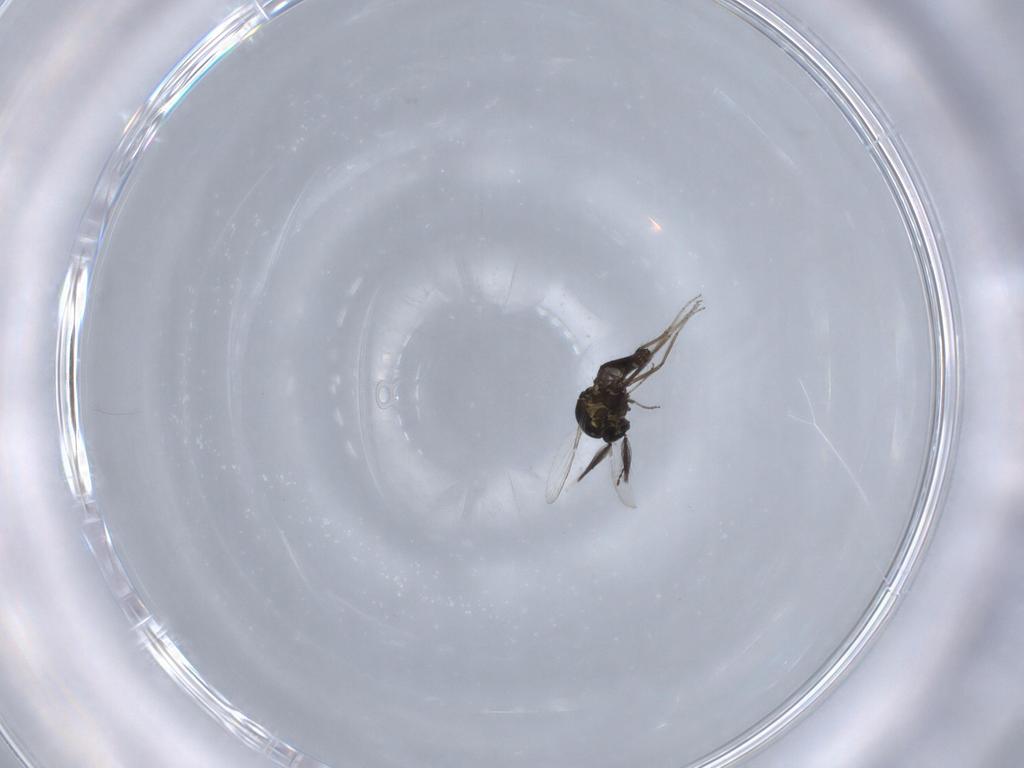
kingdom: Animalia
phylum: Arthropoda
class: Insecta
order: Diptera
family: Ceratopogonidae
